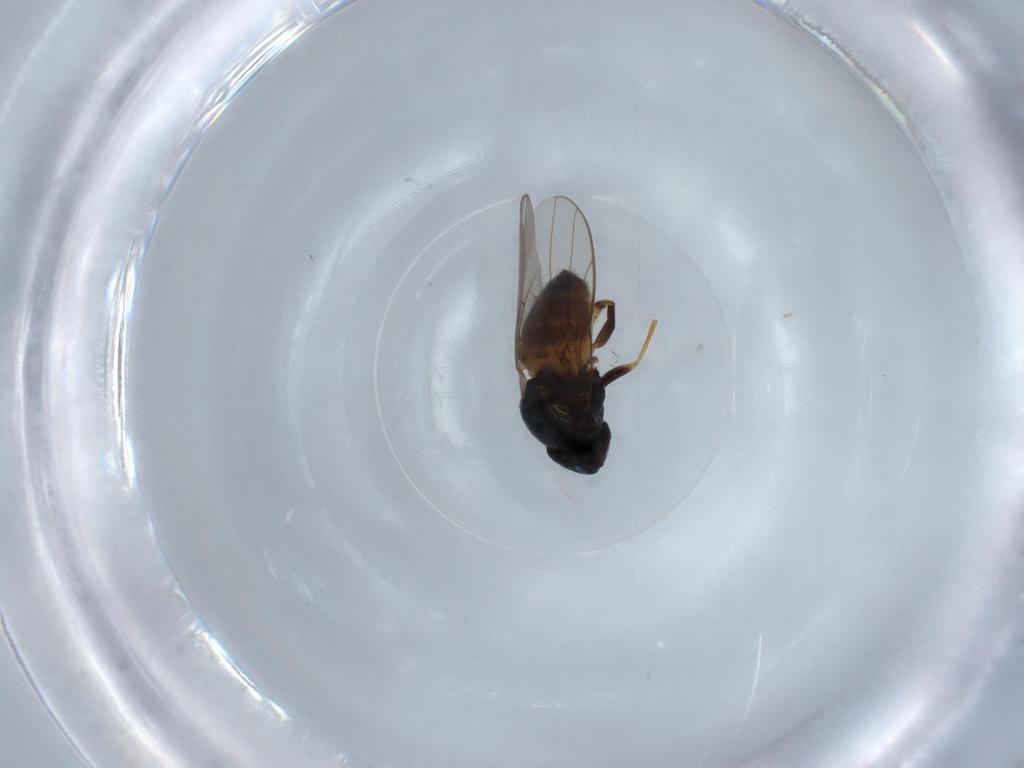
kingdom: Animalia
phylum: Arthropoda
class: Insecta
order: Diptera
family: Chloropidae
